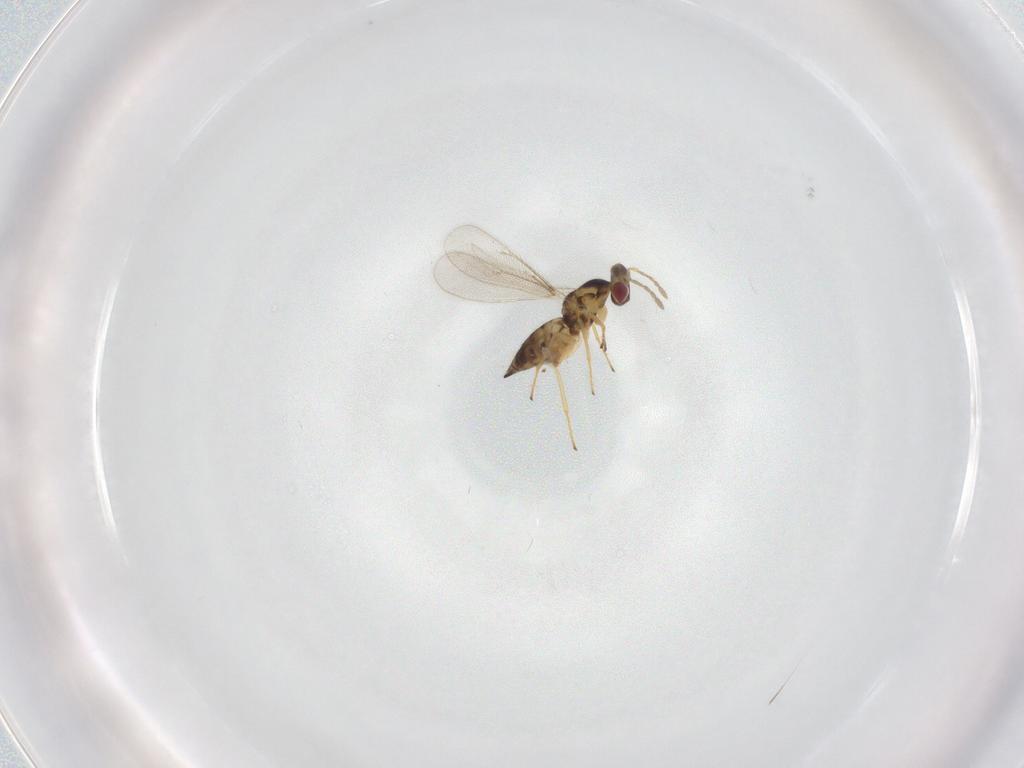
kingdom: Animalia
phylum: Arthropoda
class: Insecta
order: Hymenoptera
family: Eulophidae
